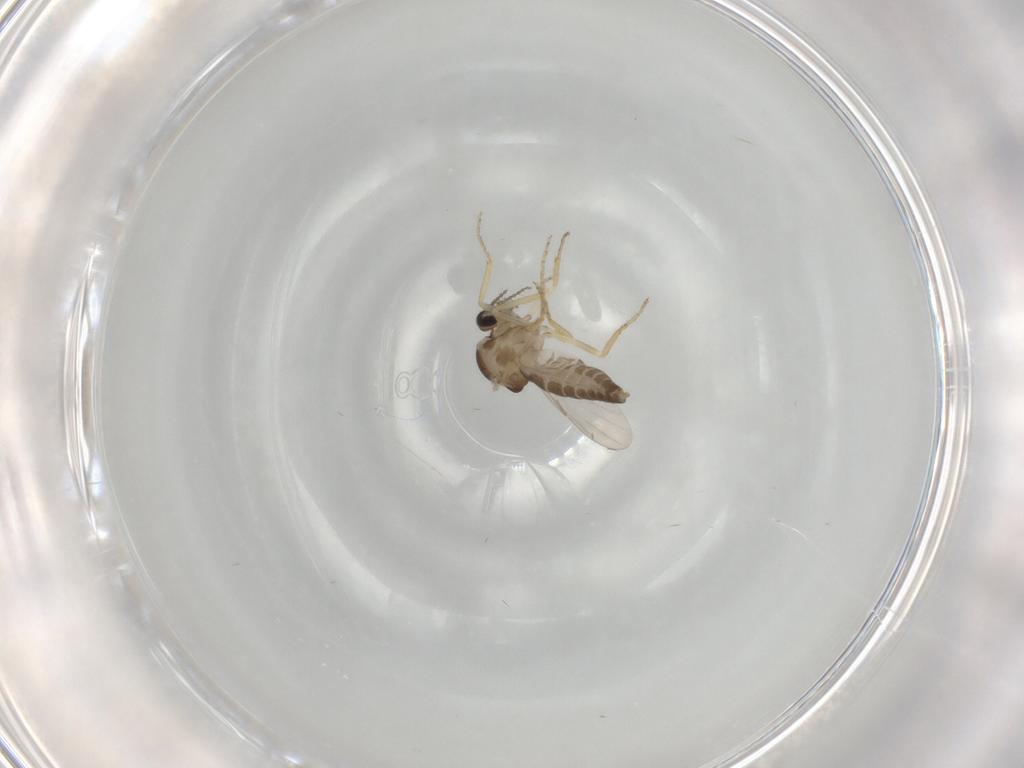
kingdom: Animalia
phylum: Arthropoda
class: Insecta
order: Diptera
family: Ceratopogonidae
